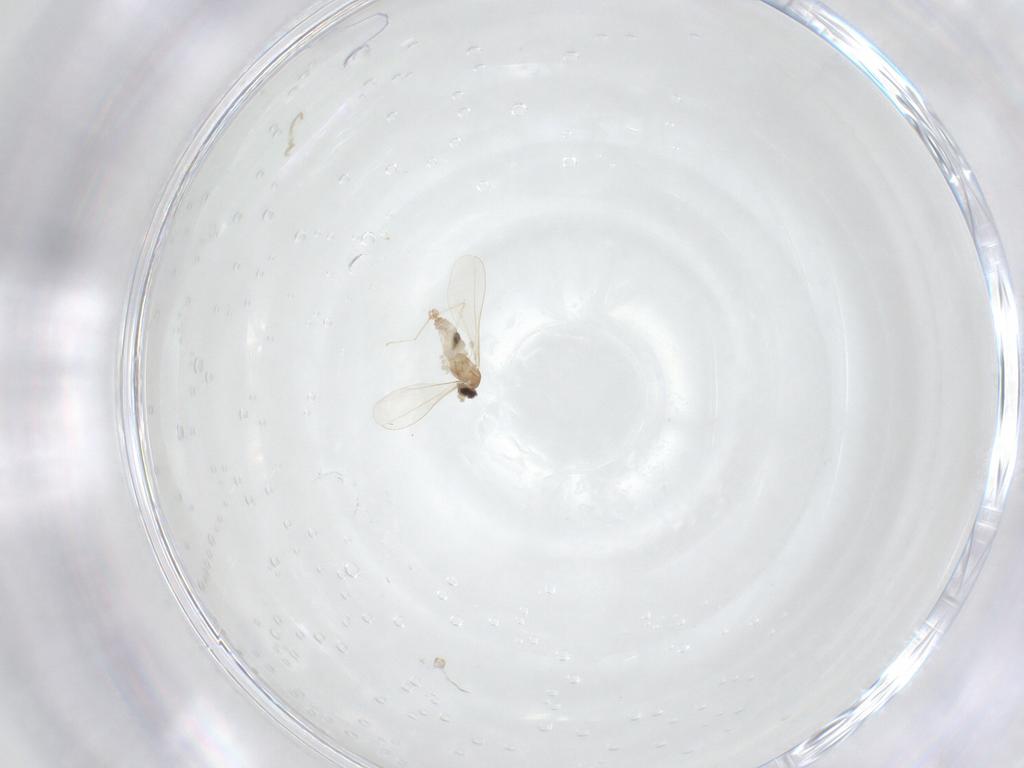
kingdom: Animalia
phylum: Arthropoda
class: Insecta
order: Diptera
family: Cecidomyiidae
